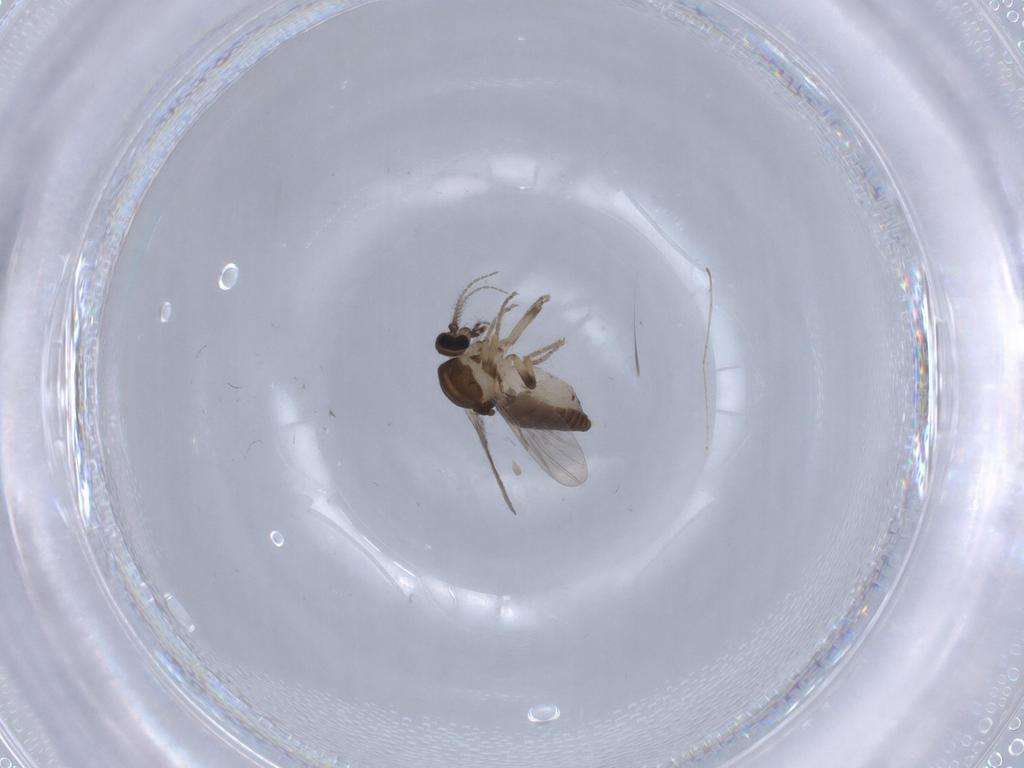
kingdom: Animalia
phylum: Arthropoda
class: Insecta
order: Diptera
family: Ceratopogonidae
